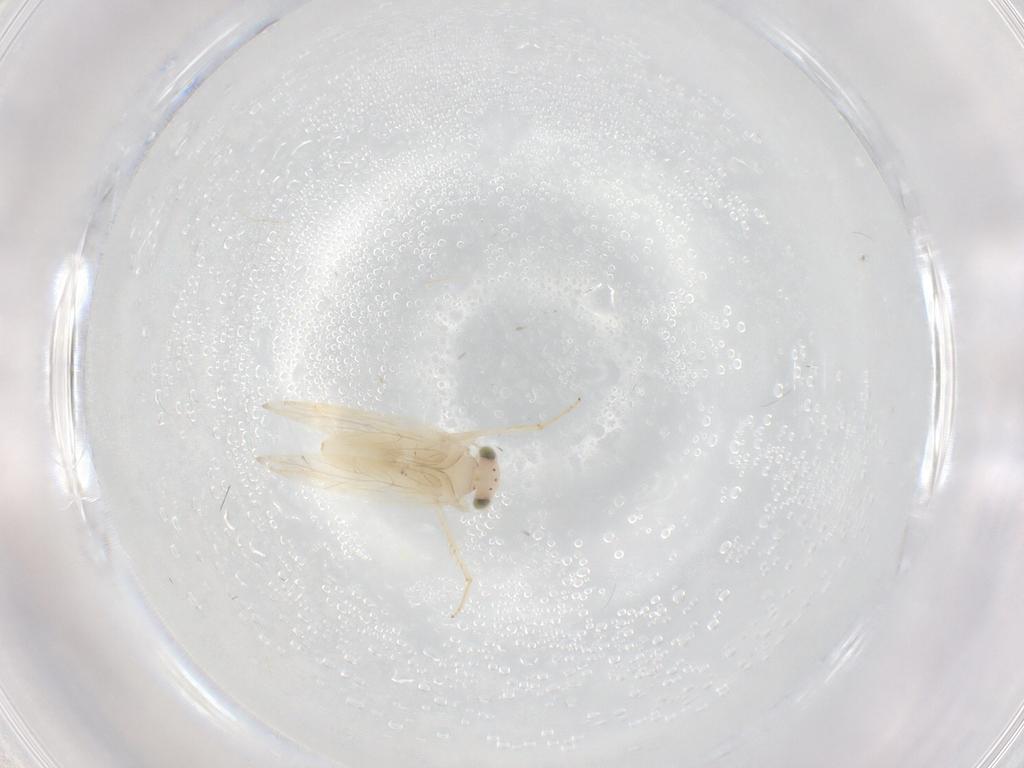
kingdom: Animalia
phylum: Arthropoda
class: Insecta
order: Psocodea
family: Lepidopsocidae
